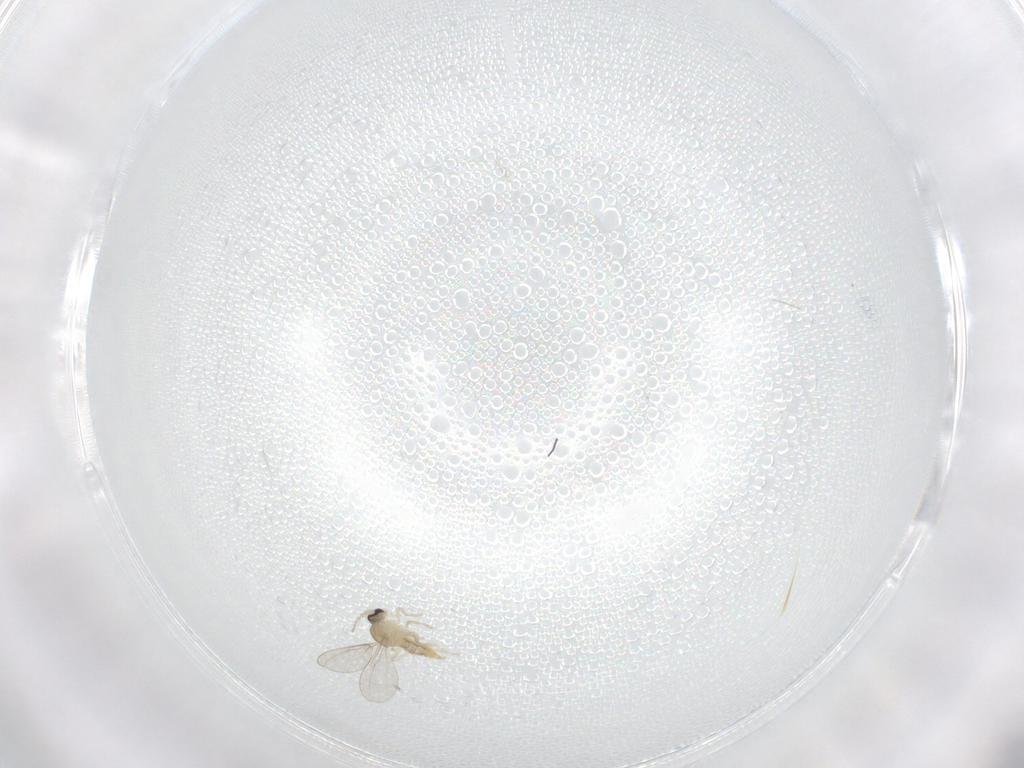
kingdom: Animalia
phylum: Arthropoda
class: Insecta
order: Diptera
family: Cecidomyiidae
